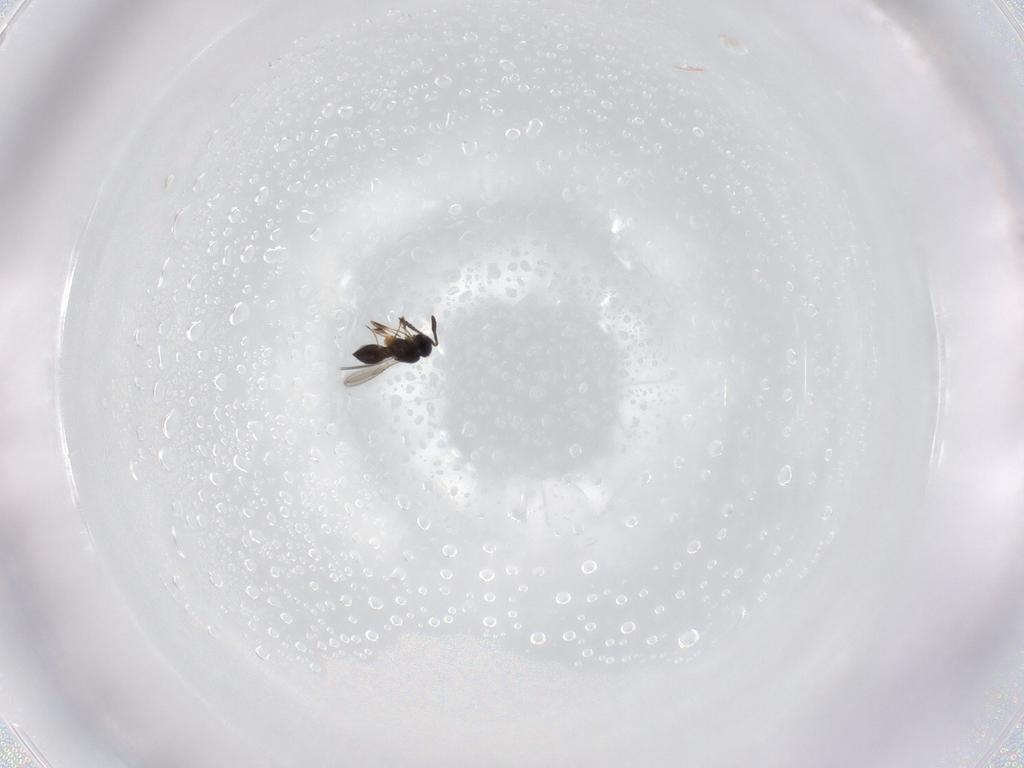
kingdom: Animalia
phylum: Arthropoda
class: Insecta
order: Hymenoptera
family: Formicidae
